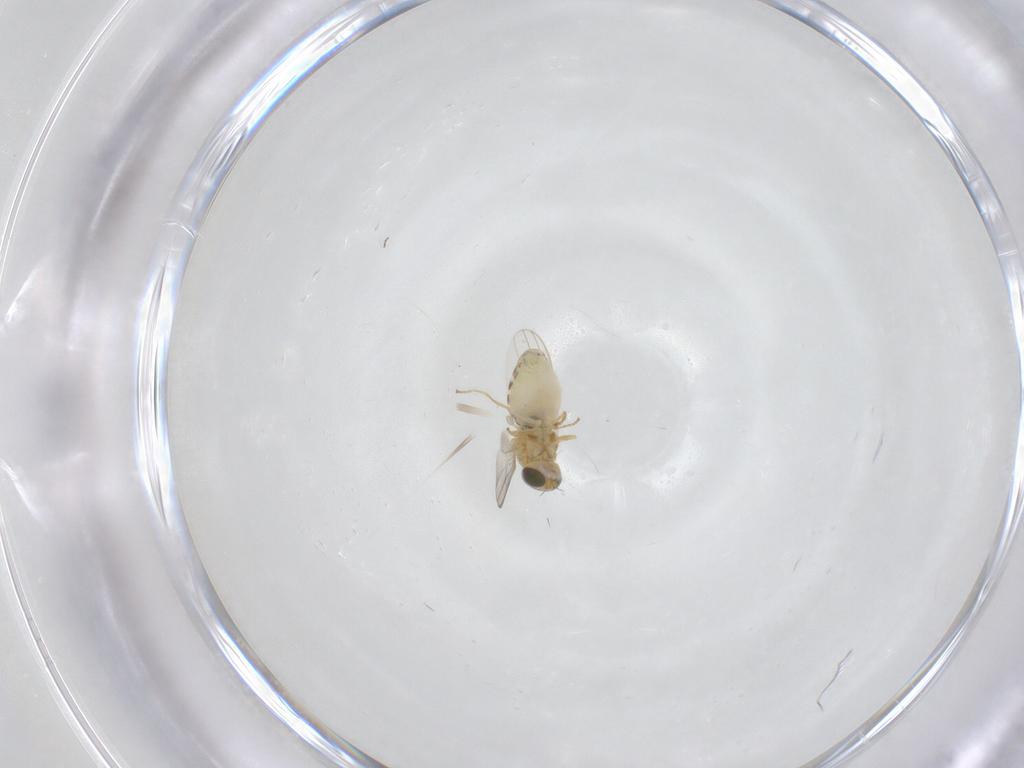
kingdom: Animalia
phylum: Arthropoda
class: Insecta
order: Diptera
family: Chyromyidae
